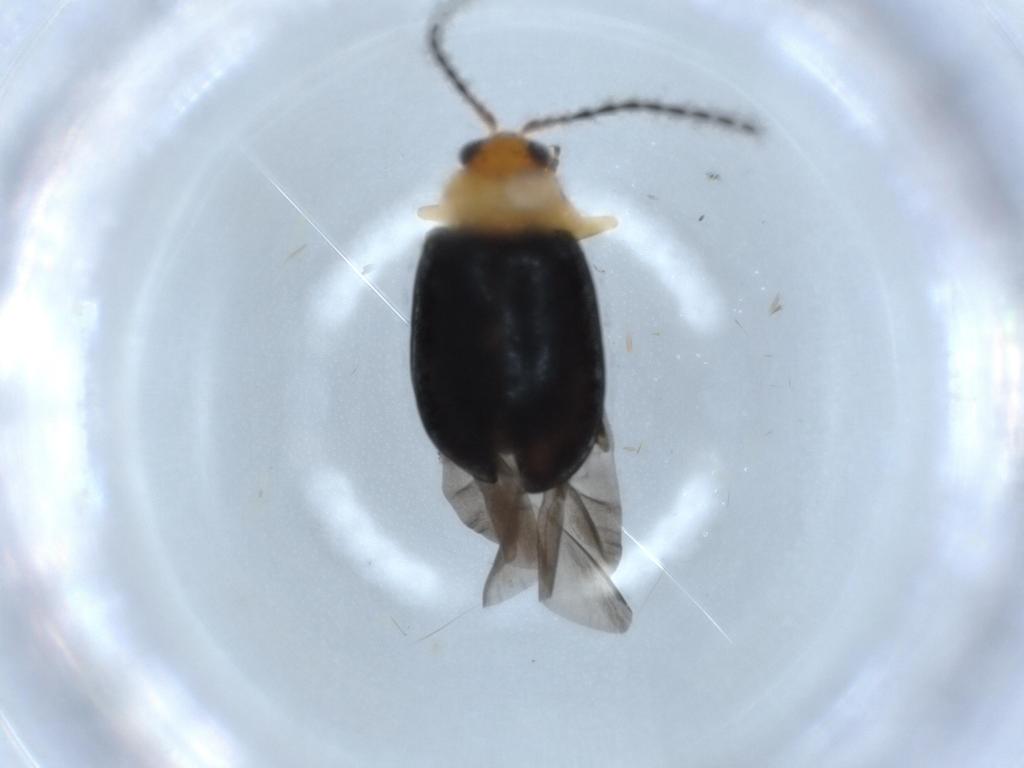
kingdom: Animalia
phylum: Arthropoda
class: Insecta
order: Coleoptera
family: Chrysomelidae
